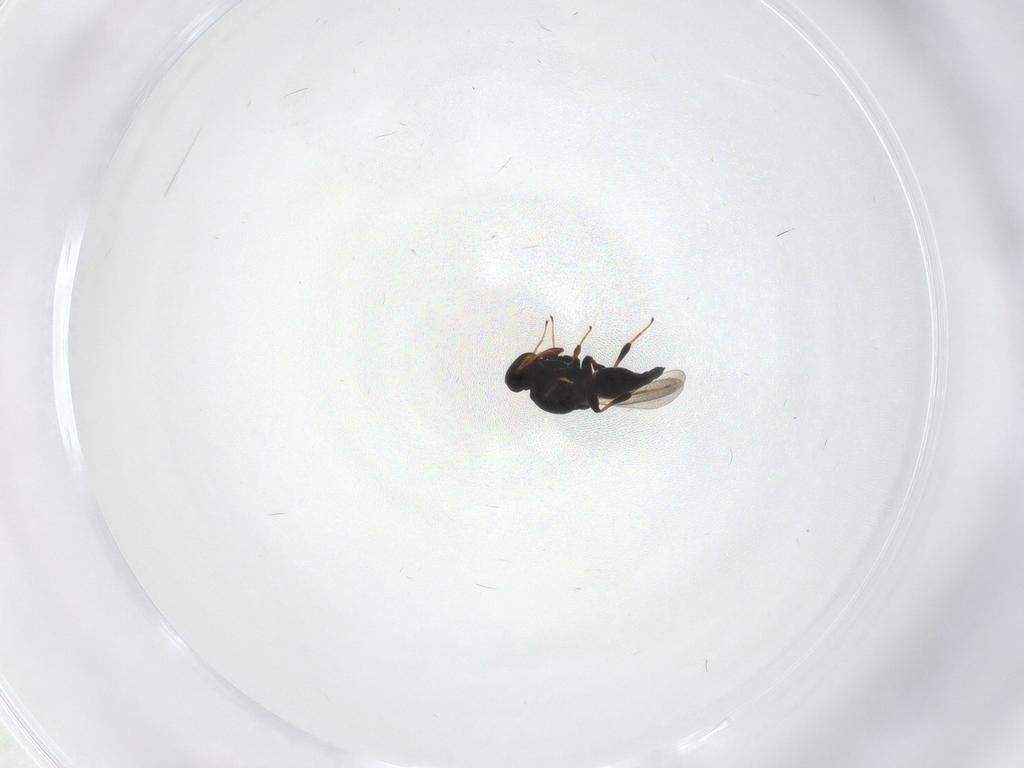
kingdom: Animalia
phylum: Arthropoda
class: Insecta
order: Hymenoptera
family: Platygastridae
